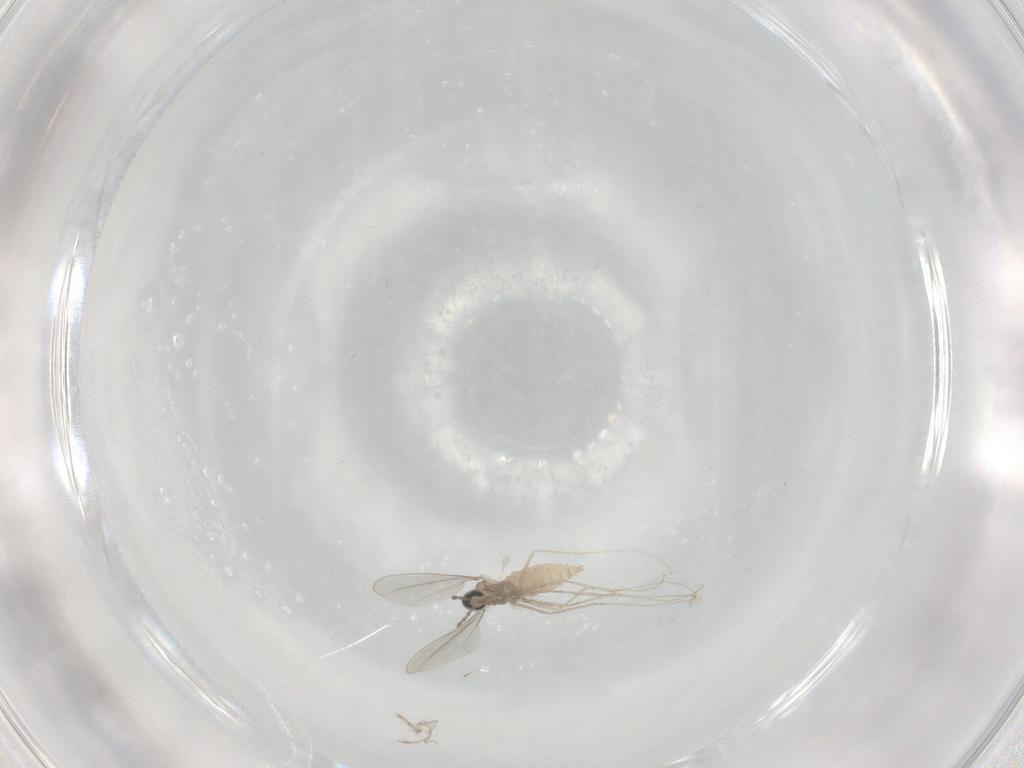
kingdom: Animalia
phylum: Arthropoda
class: Insecta
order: Diptera
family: Cecidomyiidae
